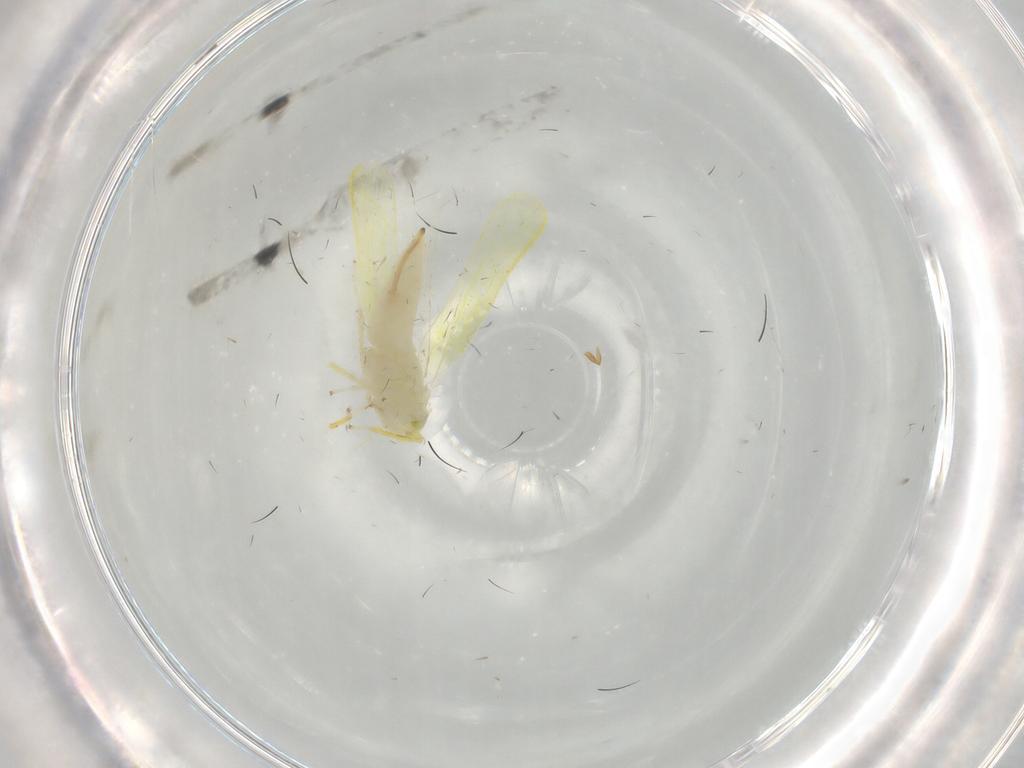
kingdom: Animalia
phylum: Arthropoda
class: Insecta
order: Hemiptera
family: Cicadellidae
